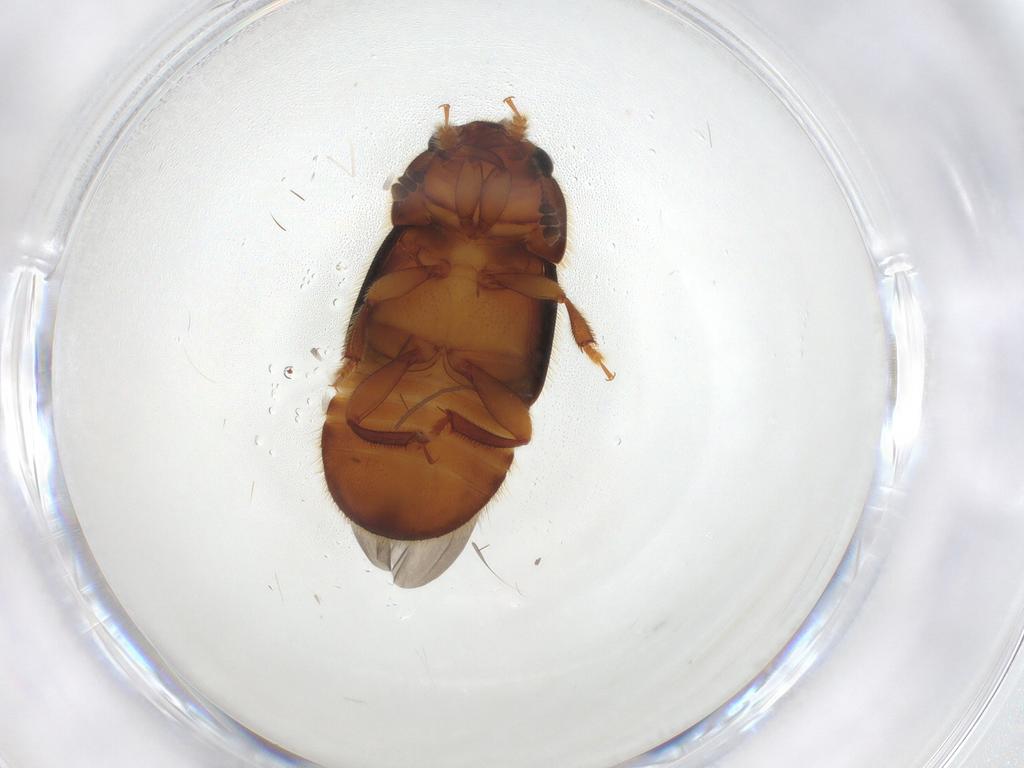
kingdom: Animalia
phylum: Arthropoda
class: Insecta
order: Coleoptera
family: Nitidulidae
